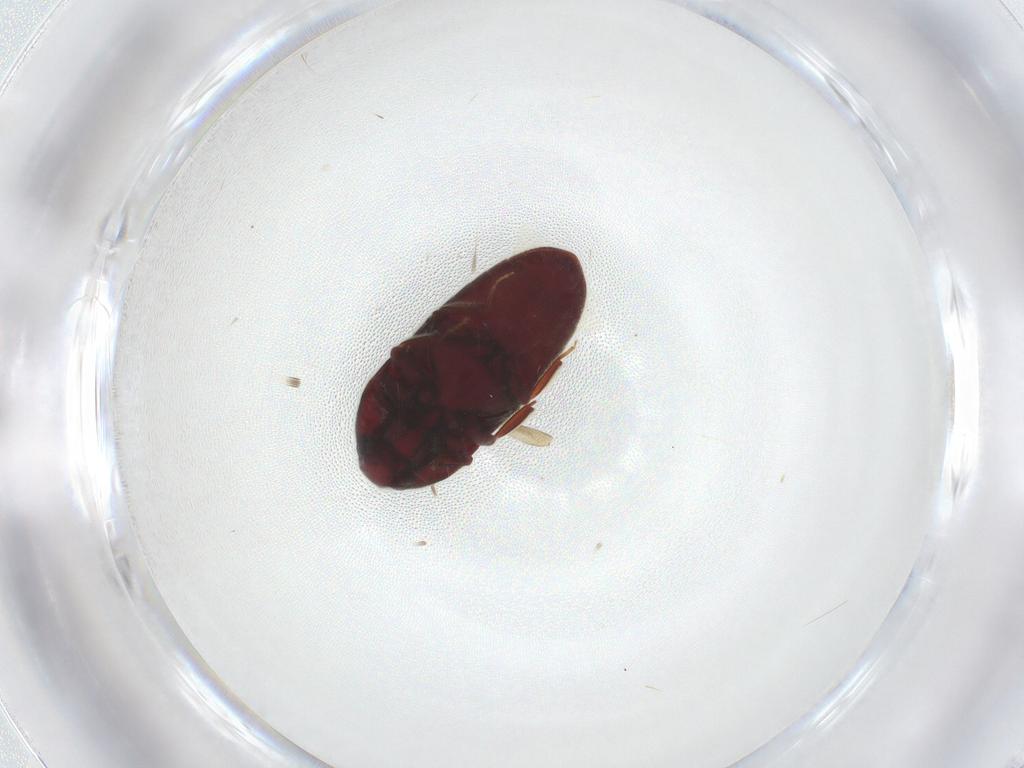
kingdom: Animalia
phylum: Arthropoda
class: Insecta
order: Coleoptera
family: Throscidae
